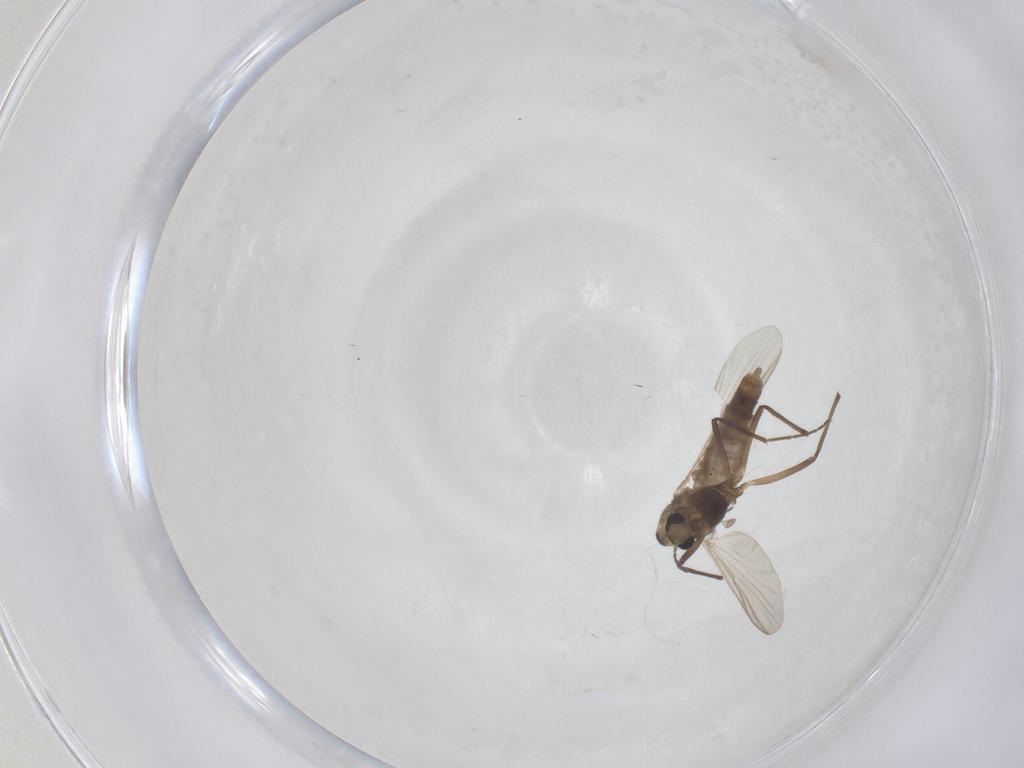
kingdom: Animalia
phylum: Arthropoda
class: Insecta
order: Diptera
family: Chironomidae
